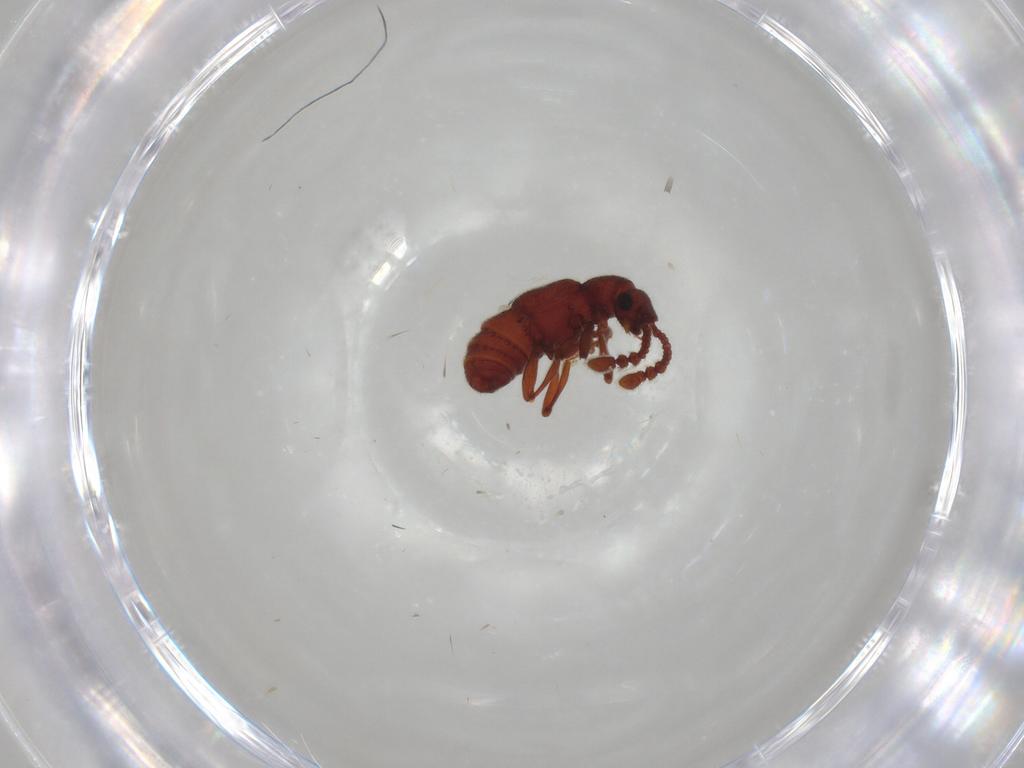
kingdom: Animalia
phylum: Arthropoda
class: Insecta
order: Coleoptera
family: Staphylinidae
